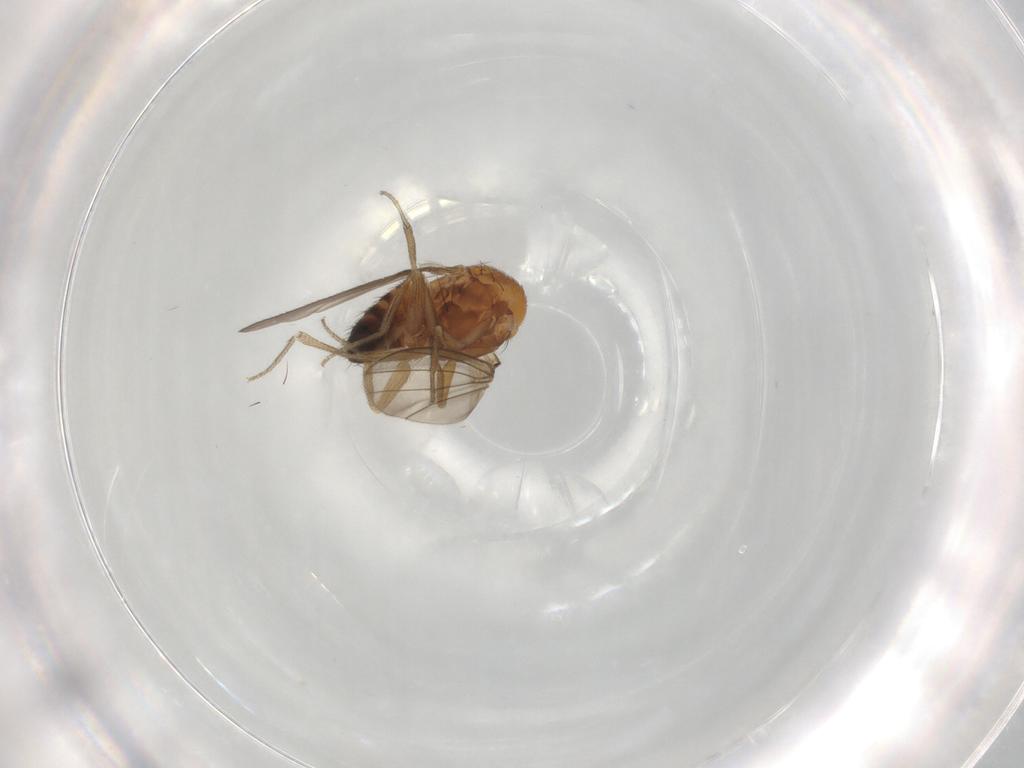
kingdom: Animalia
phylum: Arthropoda
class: Insecta
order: Diptera
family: Drosophilidae
